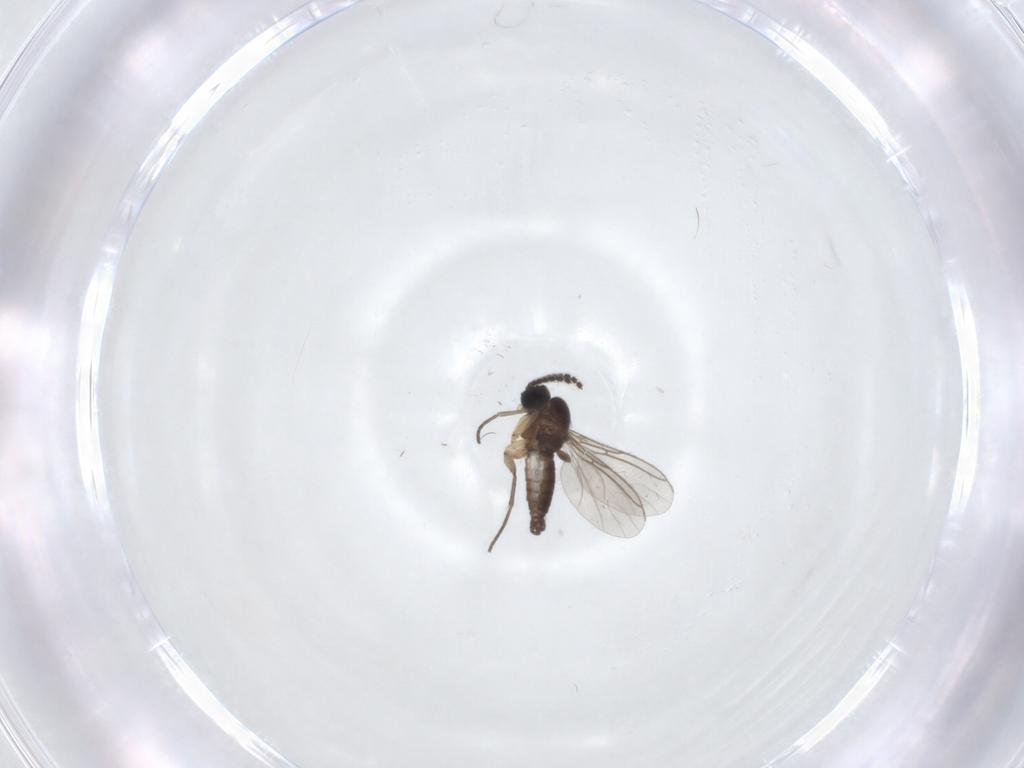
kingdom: Animalia
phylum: Arthropoda
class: Insecta
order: Diptera
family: Sciaridae
